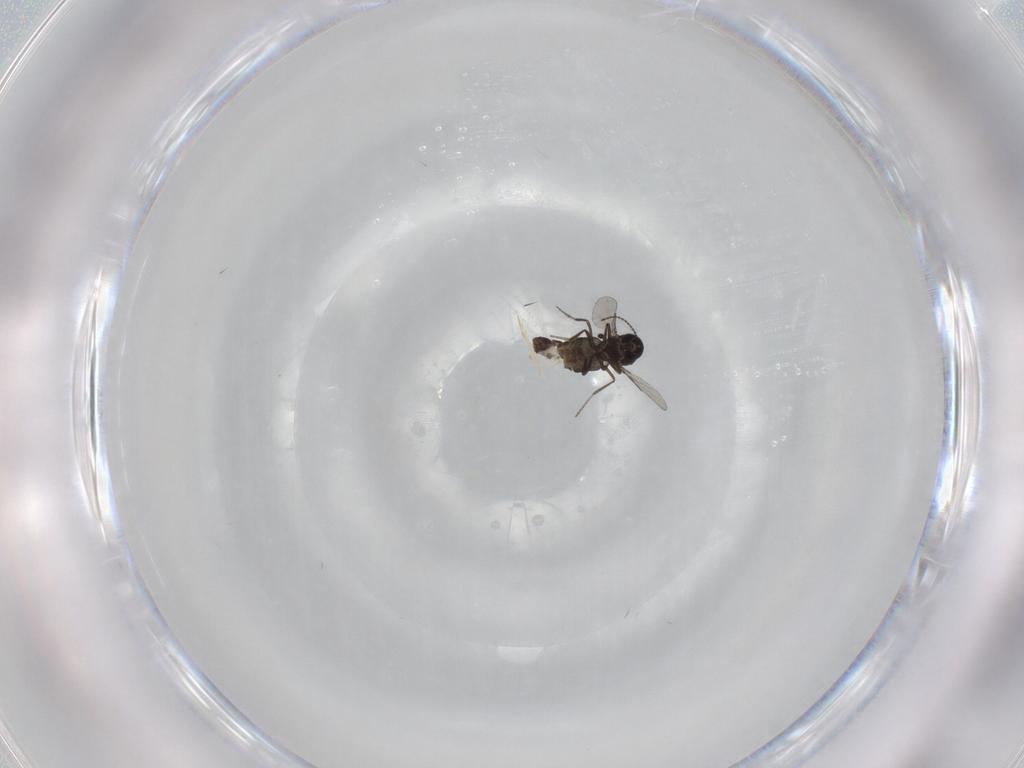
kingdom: Animalia
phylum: Arthropoda
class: Insecta
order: Diptera
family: Ceratopogonidae
